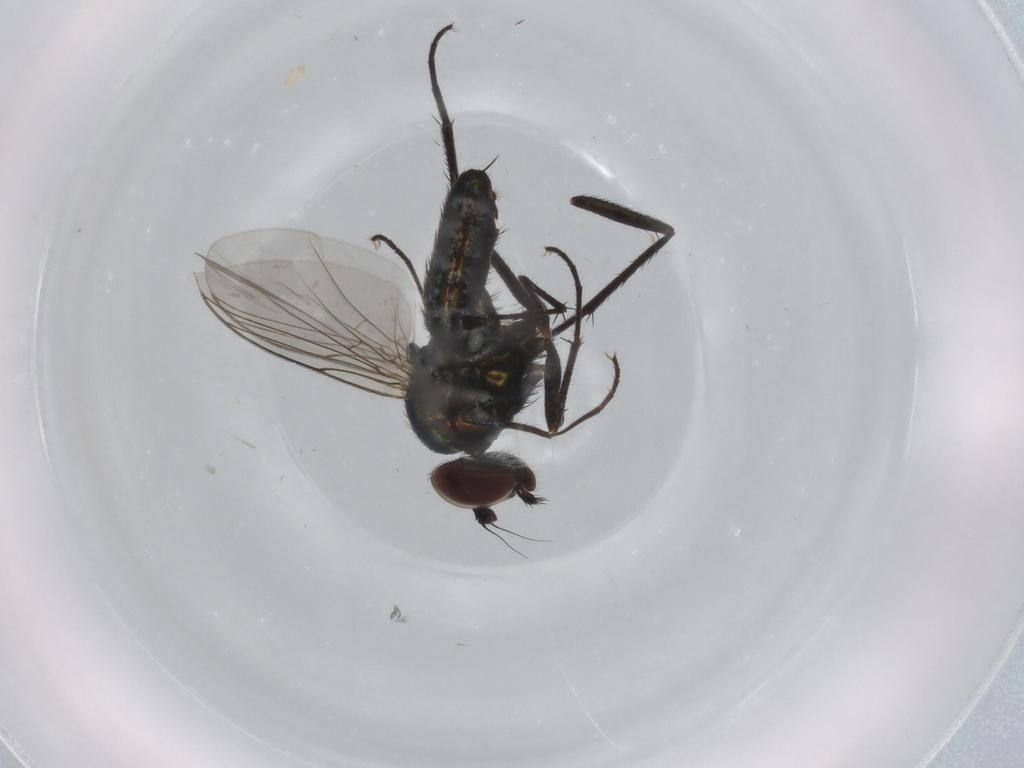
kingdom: Animalia
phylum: Arthropoda
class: Insecta
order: Diptera
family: Dolichopodidae
